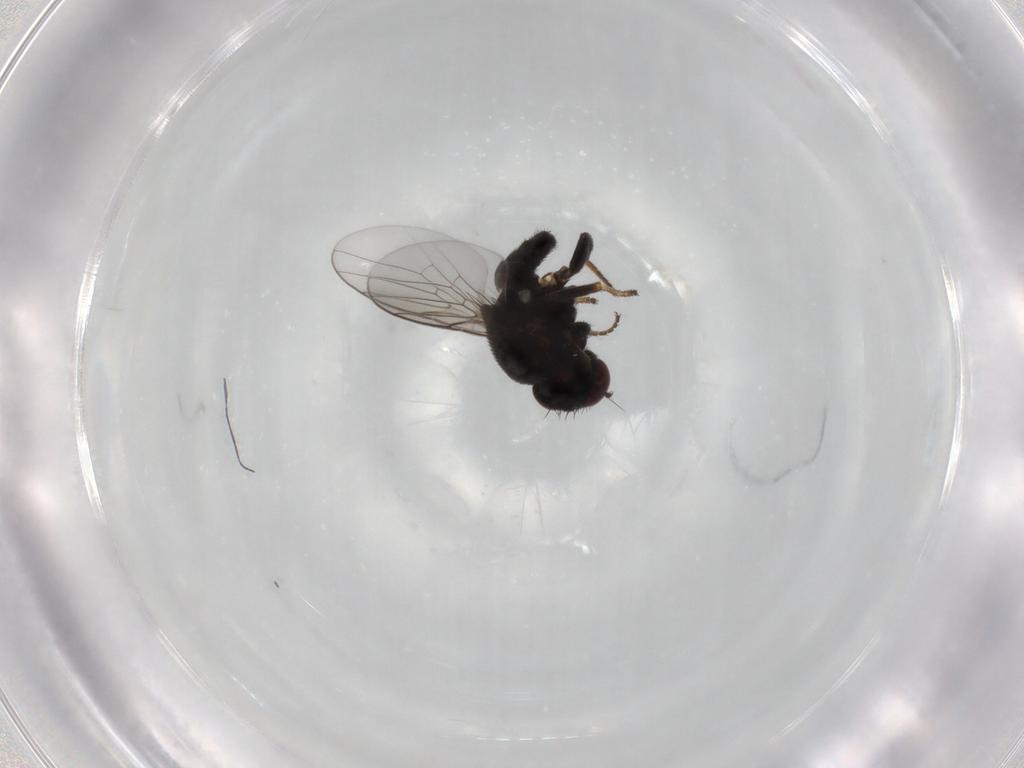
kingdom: Animalia
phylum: Arthropoda
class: Insecta
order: Diptera
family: Chloropidae
